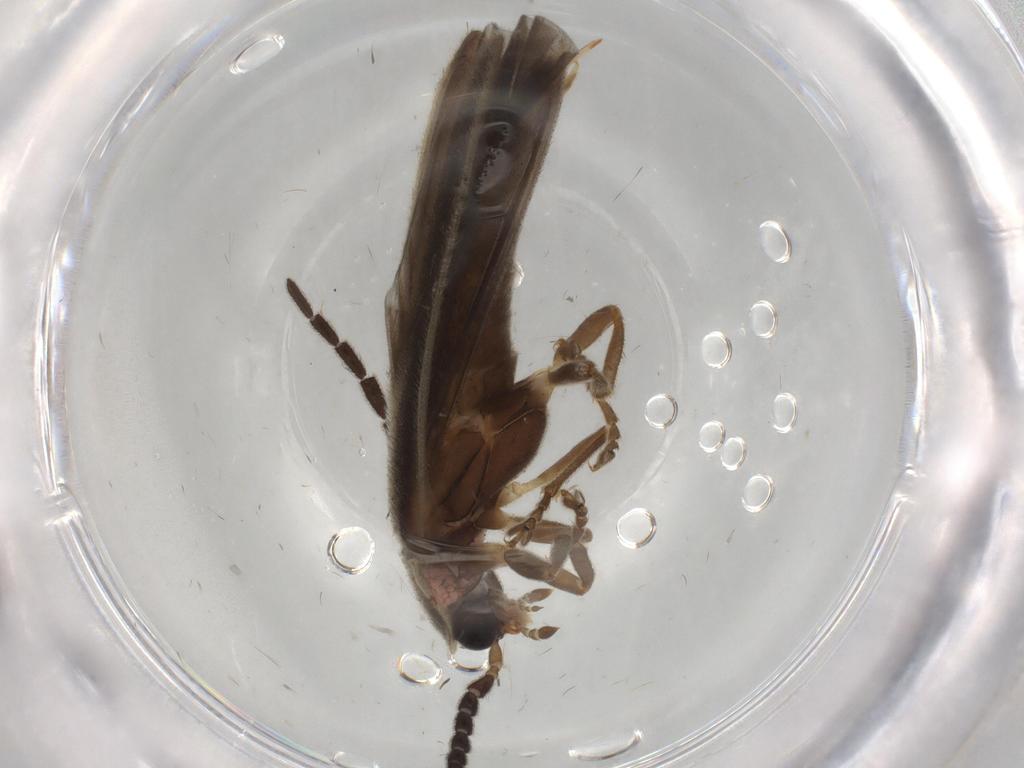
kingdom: Animalia
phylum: Arthropoda
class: Insecta
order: Coleoptera
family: Lampyridae
